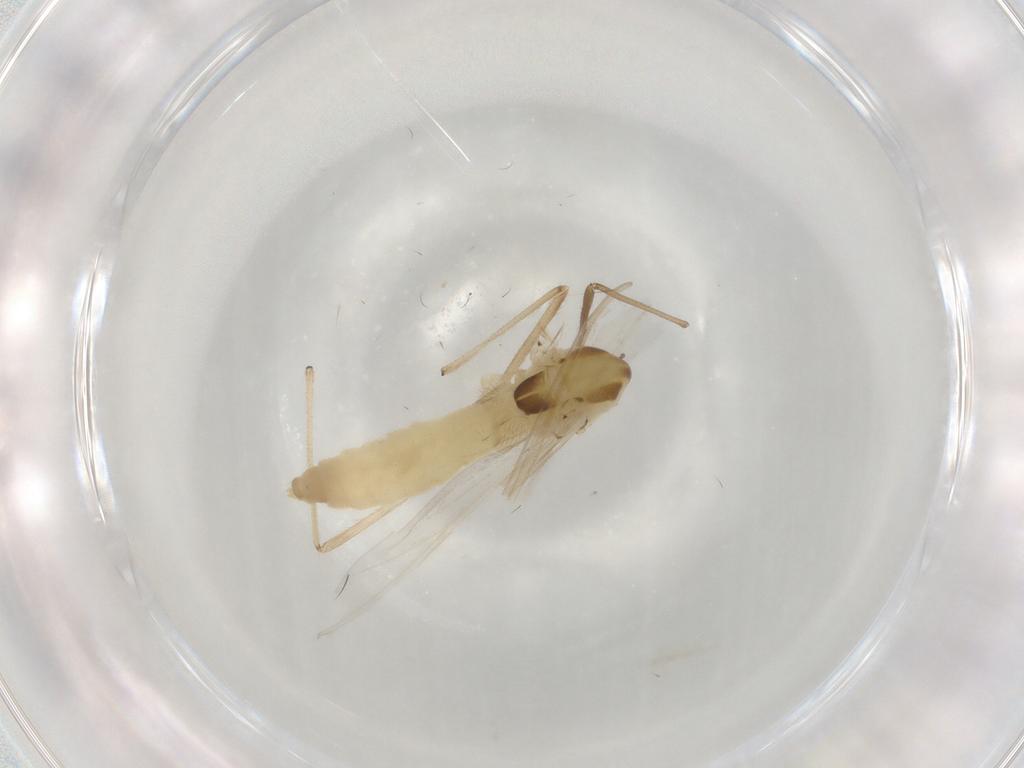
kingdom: Animalia
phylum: Arthropoda
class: Insecta
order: Diptera
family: Chironomidae
